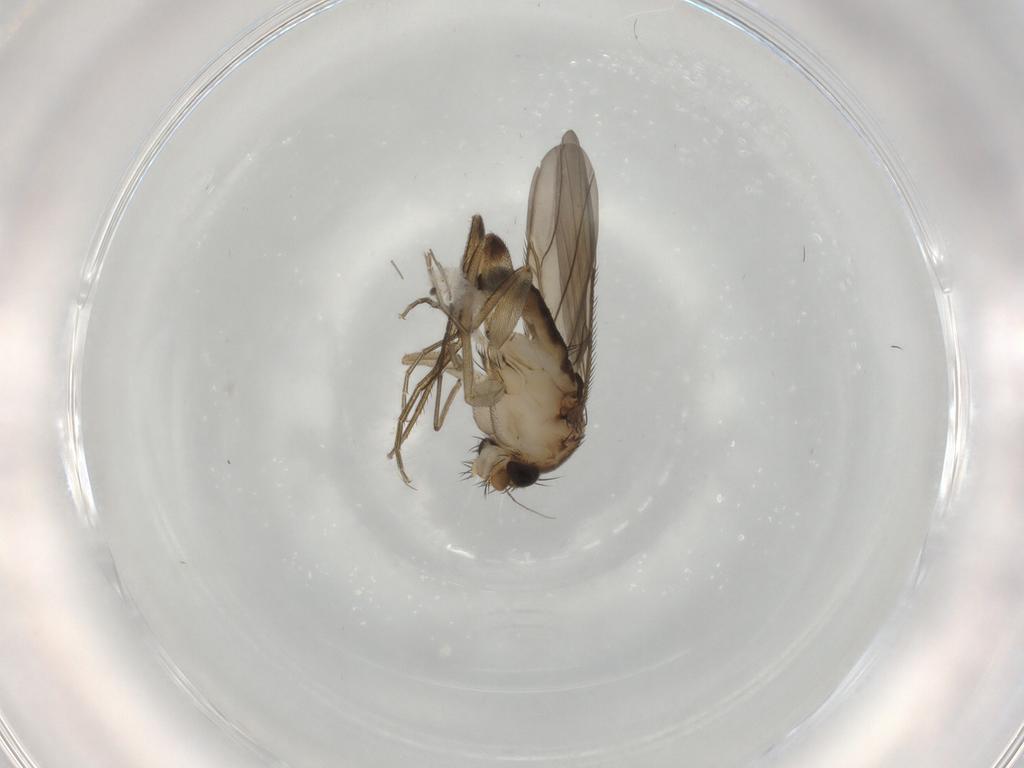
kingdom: Animalia
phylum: Arthropoda
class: Insecta
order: Diptera
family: Phoridae
